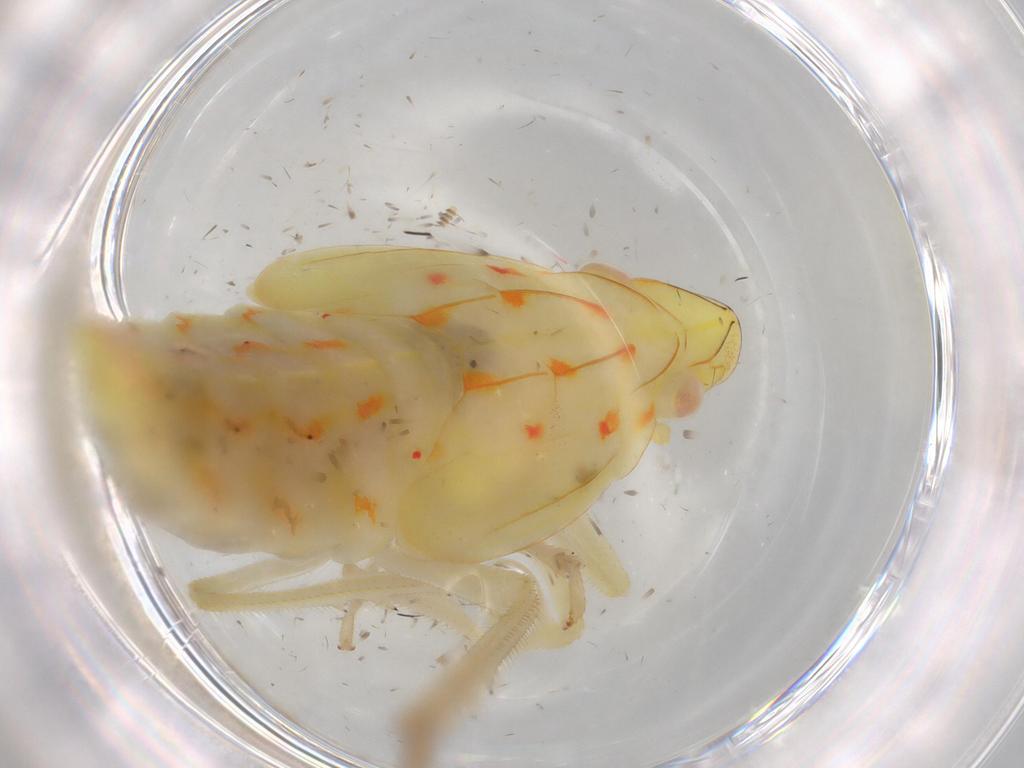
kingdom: Animalia
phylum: Arthropoda
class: Insecta
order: Hemiptera
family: Tropiduchidae
